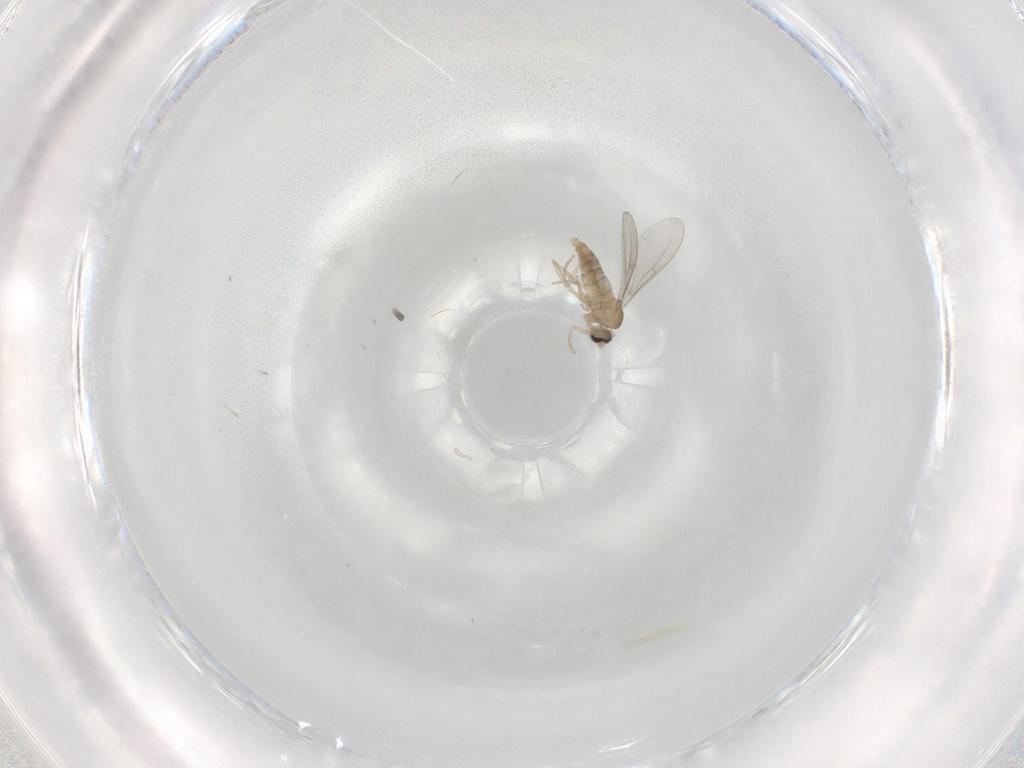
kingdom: Animalia
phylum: Arthropoda
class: Insecta
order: Diptera
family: Cecidomyiidae
